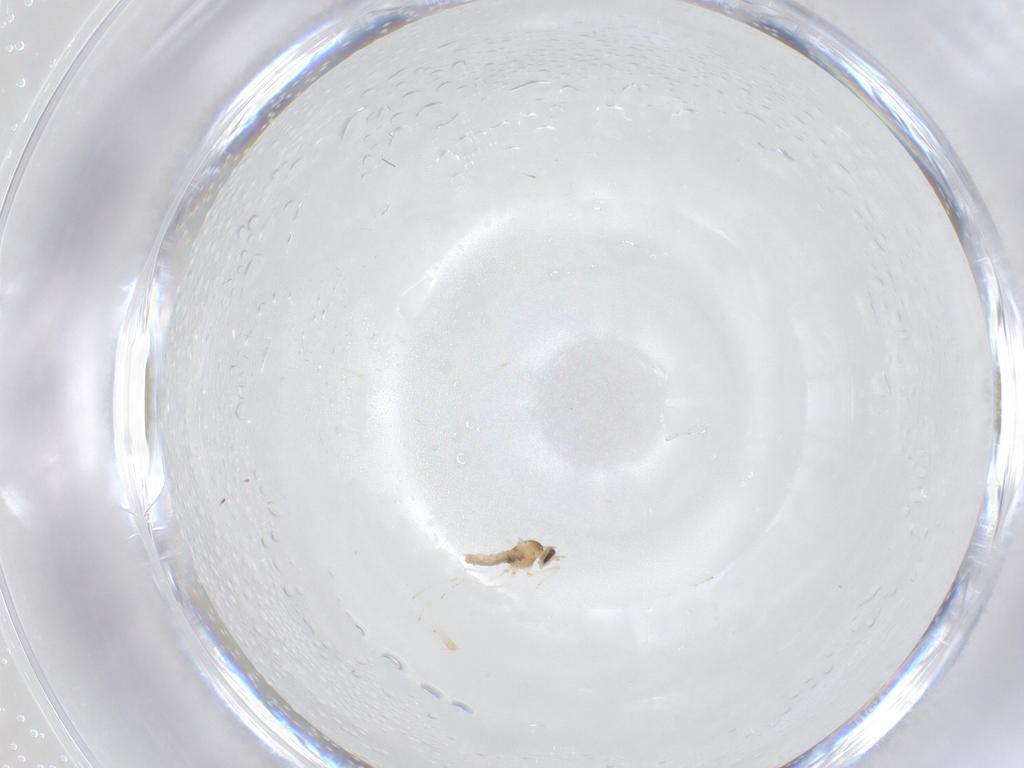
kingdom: Animalia
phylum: Arthropoda
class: Insecta
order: Diptera
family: Cecidomyiidae
